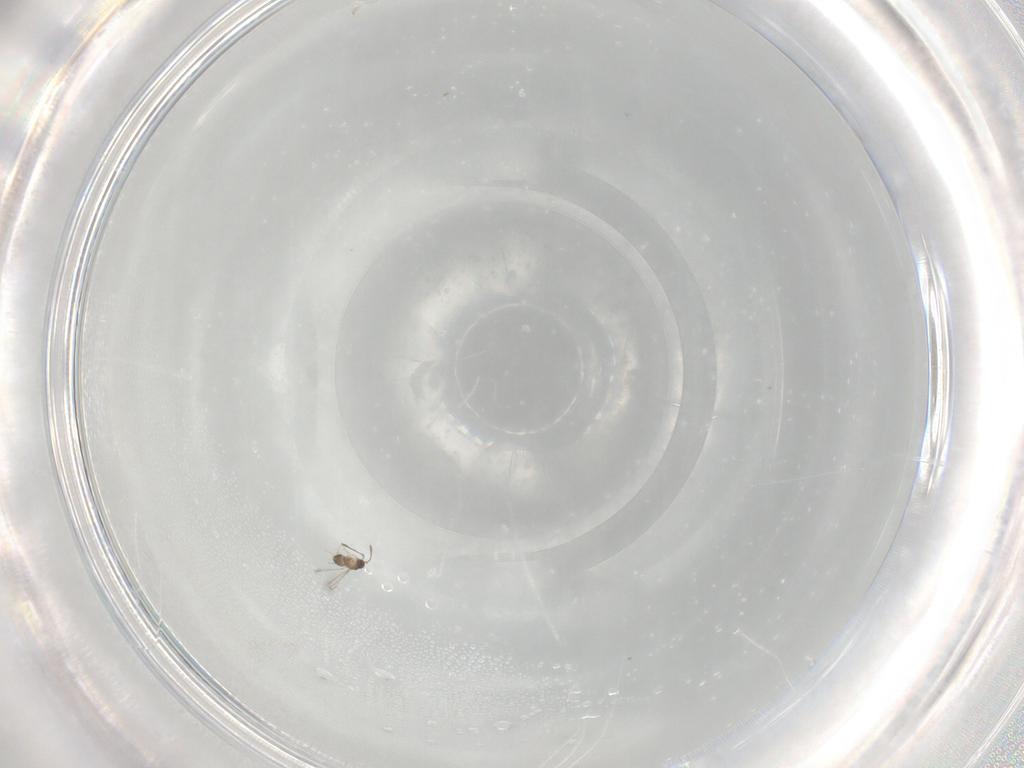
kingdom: Animalia
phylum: Arthropoda
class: Insecta
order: Hymenoptera
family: Mymaridae
